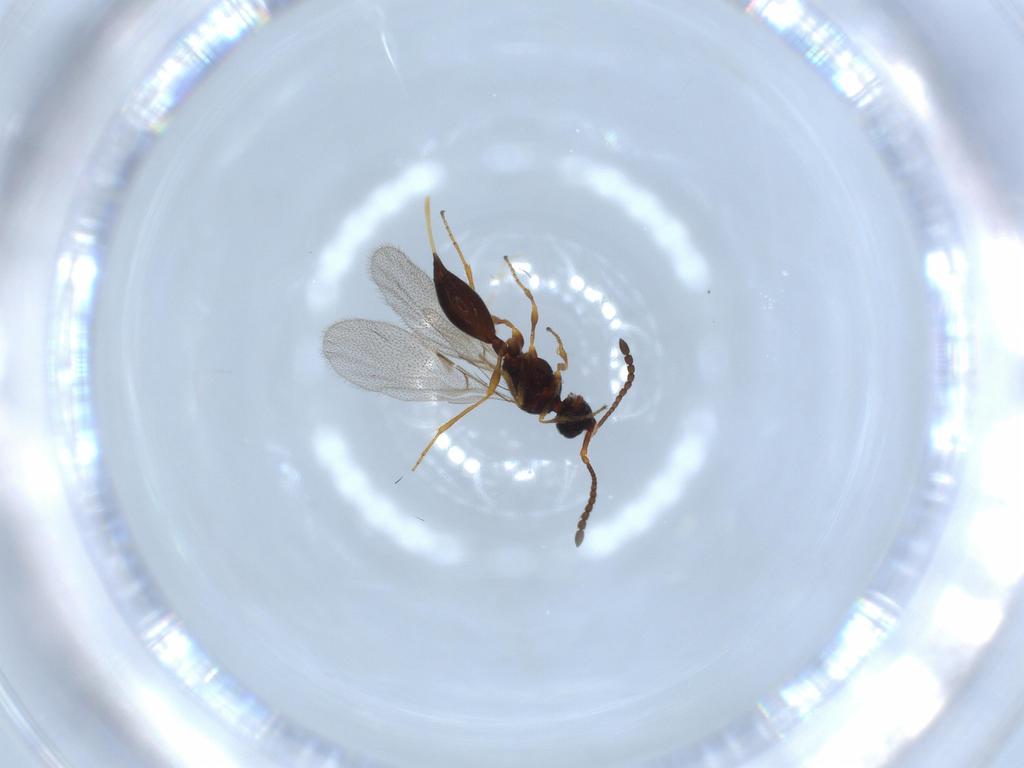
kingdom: Animalia
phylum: Arthropoda
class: Insecta
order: Hymenoptera
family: Diapriidae
